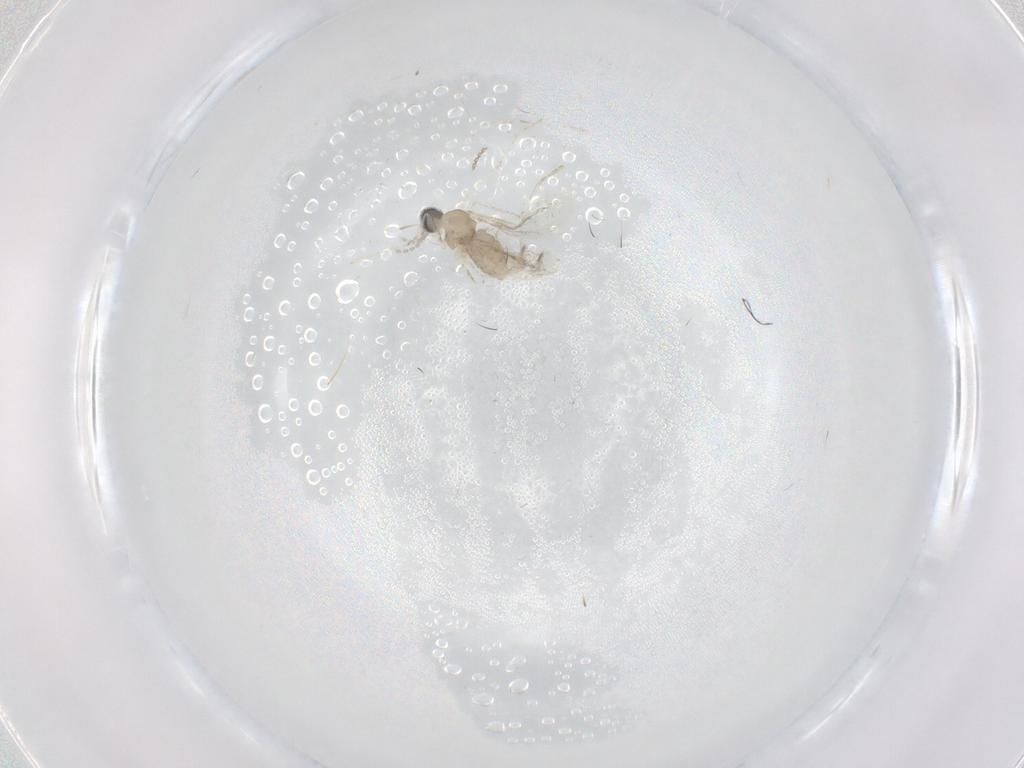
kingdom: Animalia
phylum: Arthropoda
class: Insecta
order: Diptera
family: Cecidomyiidae
